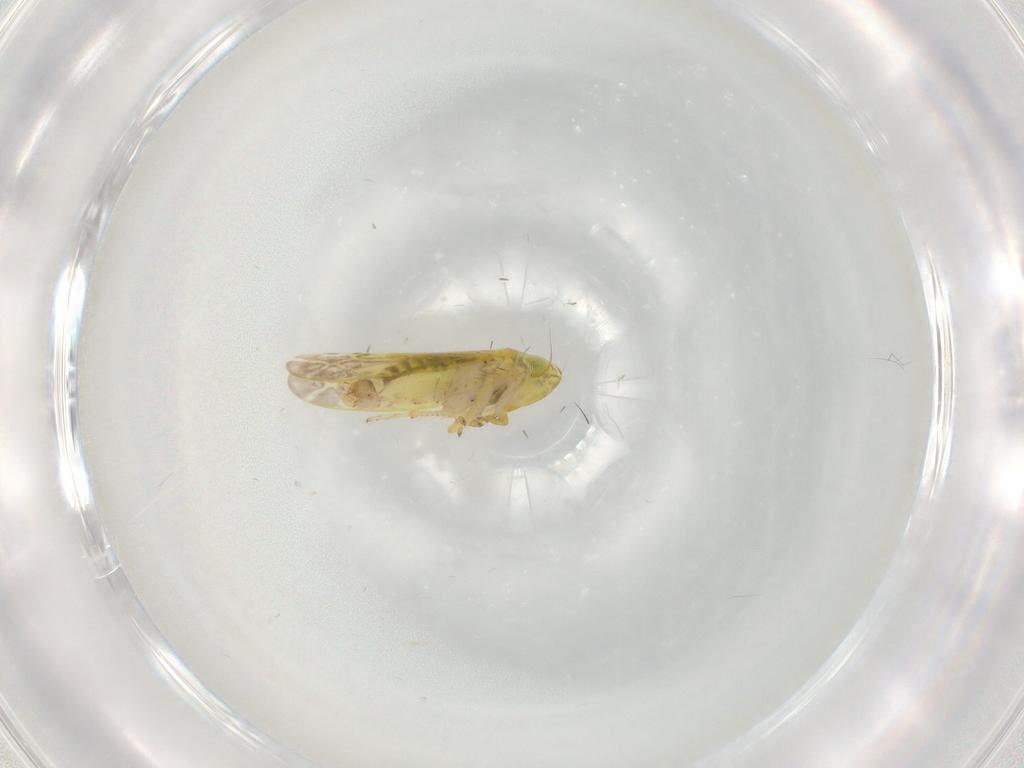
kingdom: Animalia
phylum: Arthropoda
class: Insecta
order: Hemiptera
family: Cicadellidae
